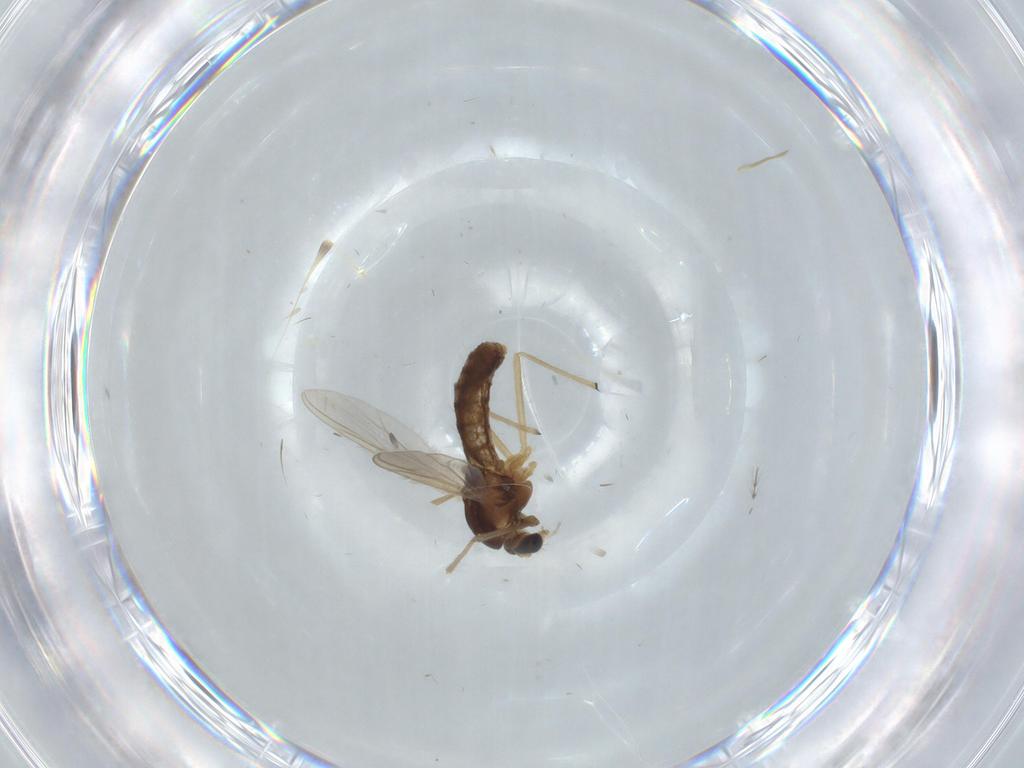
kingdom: Animalia
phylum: Arthropoda
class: Insecta
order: Diptera
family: Chironomidae
